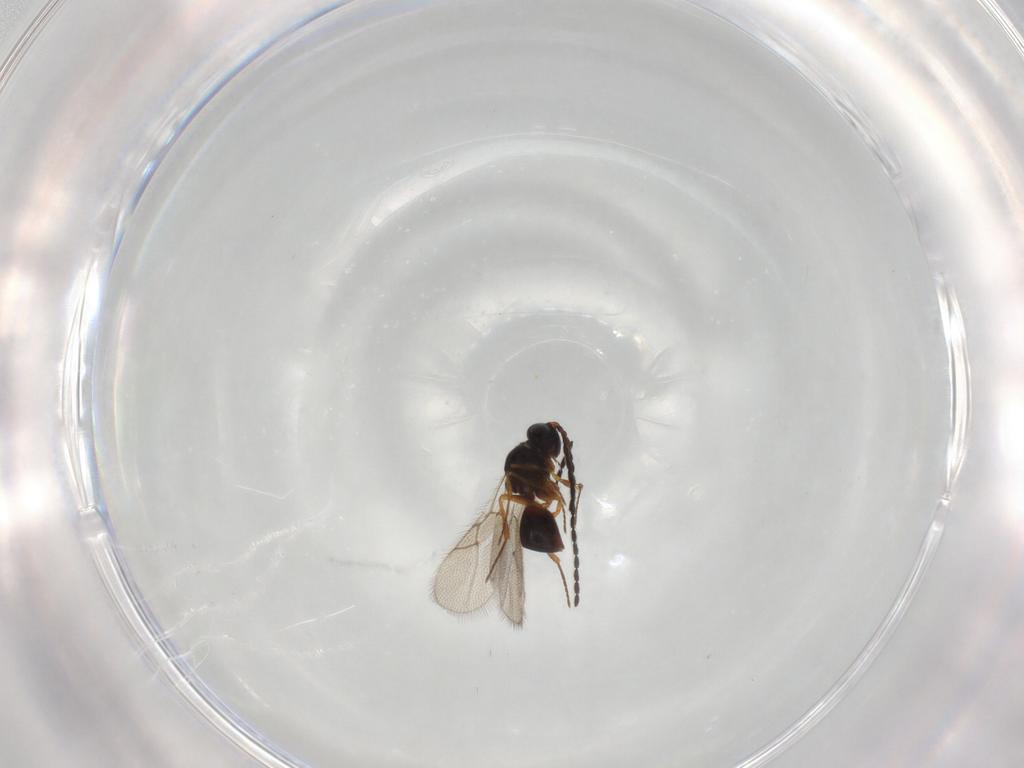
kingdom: Animalia
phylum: Arthropoda
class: Insecta
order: Hymenoptera
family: Figitidae
